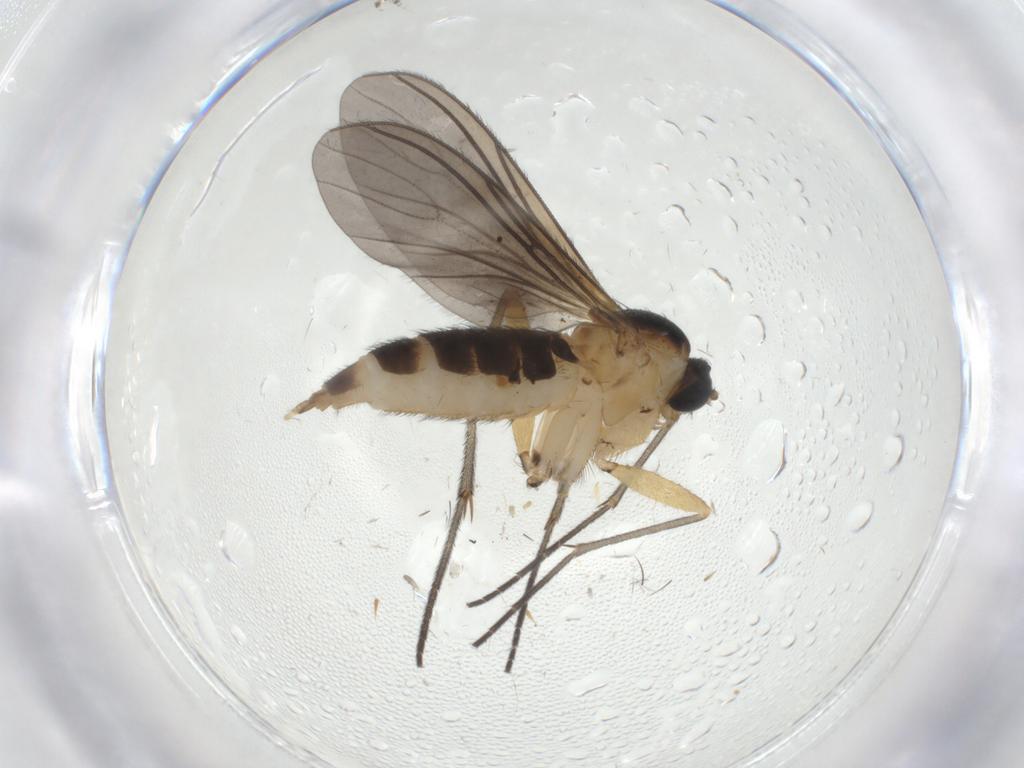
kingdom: Animalia
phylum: Arthropoda
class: Insecta
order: Diptera
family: Sciaridae
